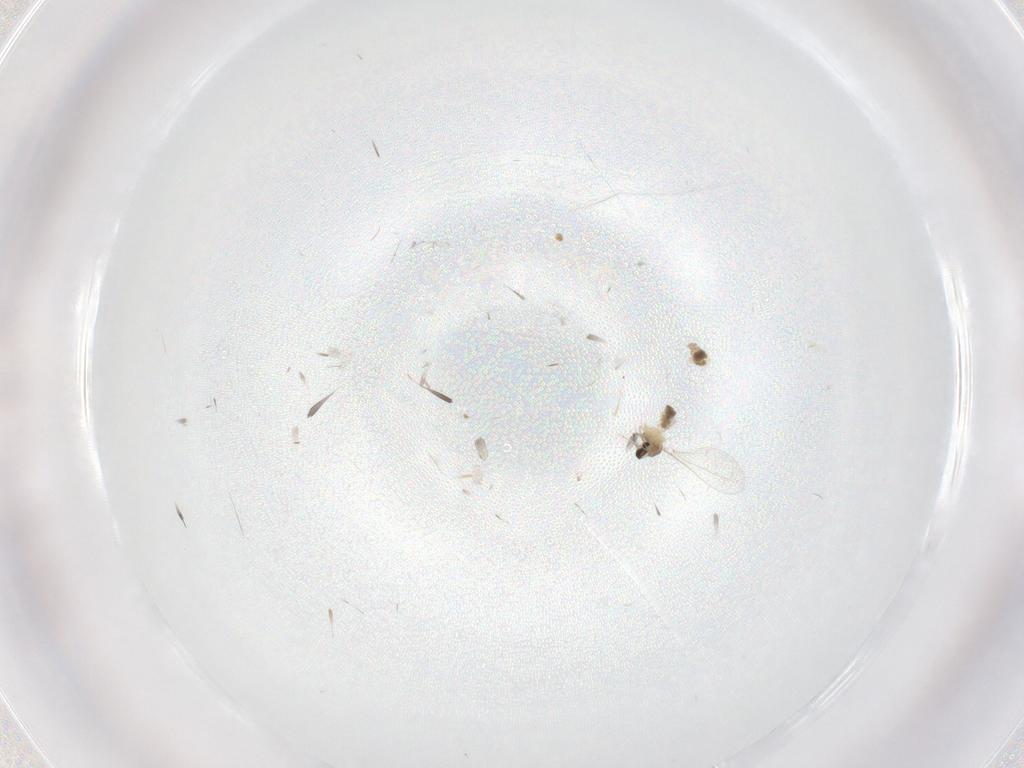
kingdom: Animalia
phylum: Arthropoda
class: Insecta
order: Diptera
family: Cecidomyiidae
